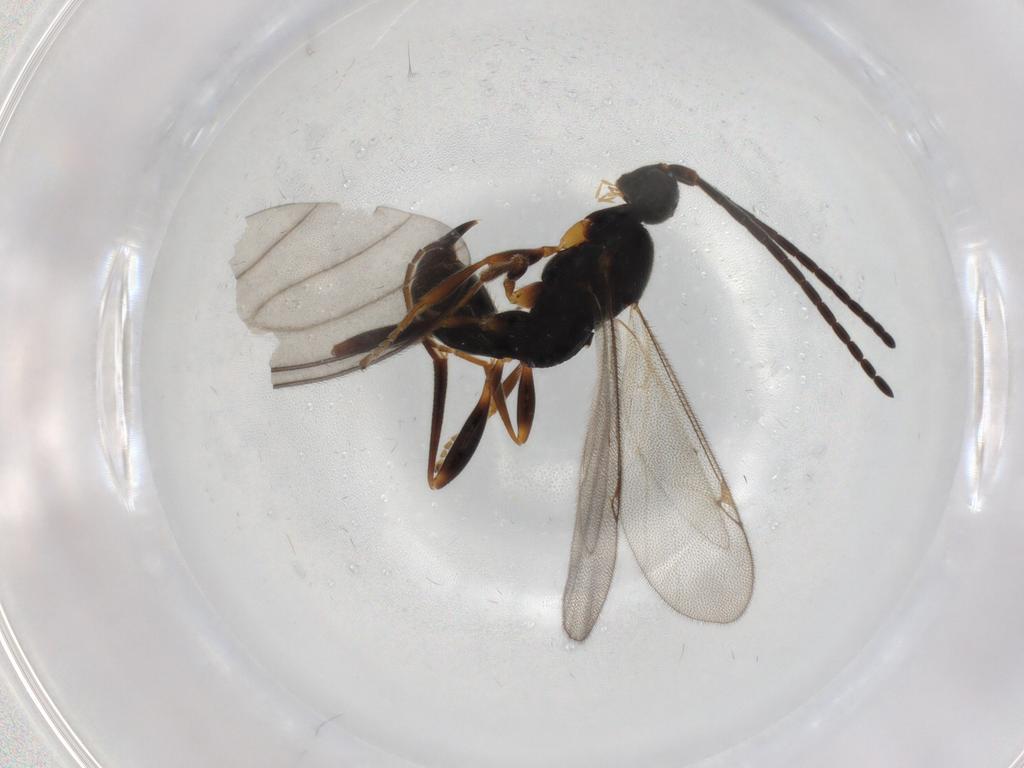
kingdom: Animalia
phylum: Arthropoda
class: Insecta
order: Hymenoptera
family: Proctotrupidae
